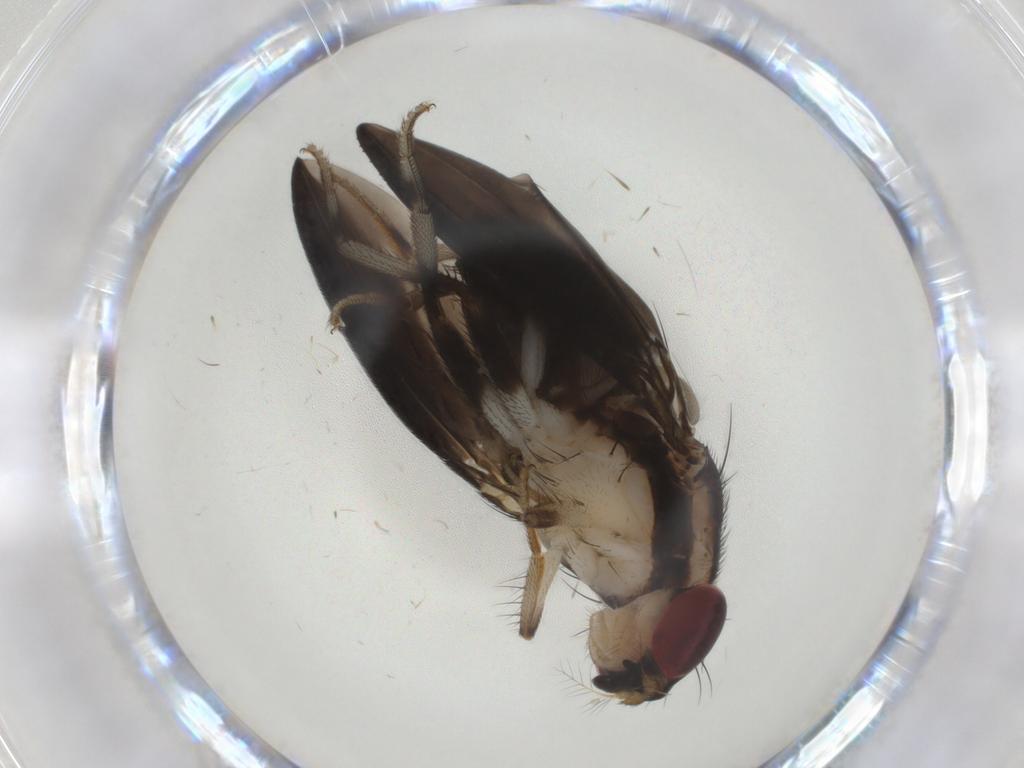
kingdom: Animalia
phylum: Arthropoda
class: Insecta
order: Diptera
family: Drosophilidae
